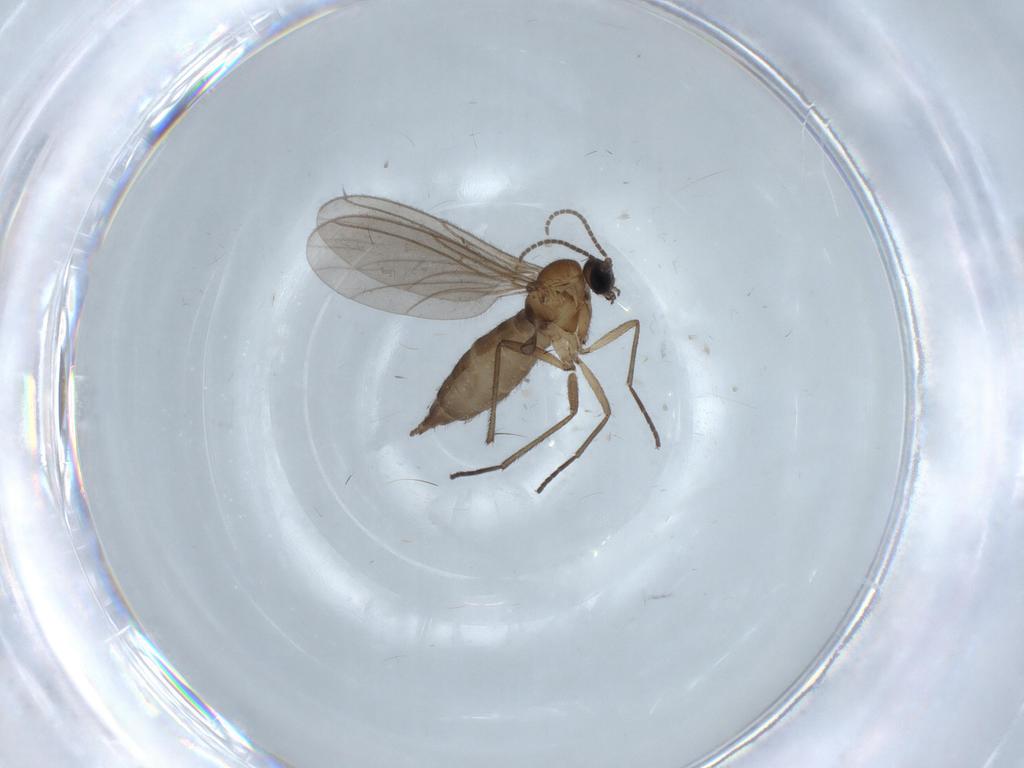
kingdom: Animalia
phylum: Arthropoda
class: Insecta
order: Diptera
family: Sciaridae
